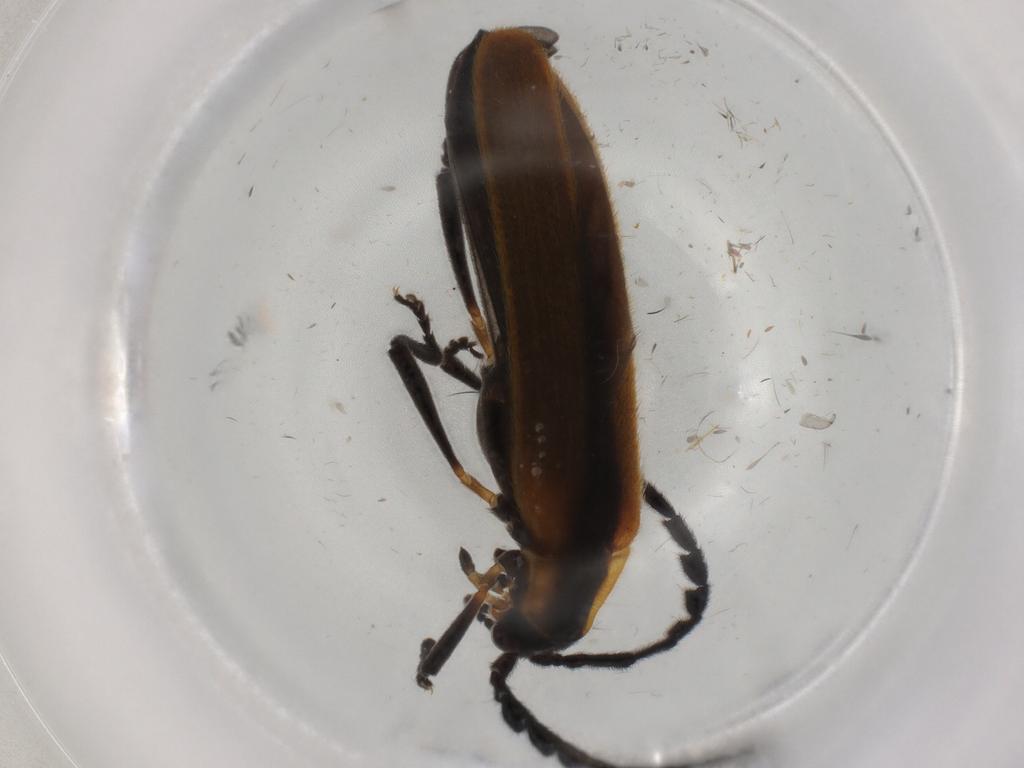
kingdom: Animalia
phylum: Arthropoda
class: Insecta
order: Coleoptera
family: Lycidae
